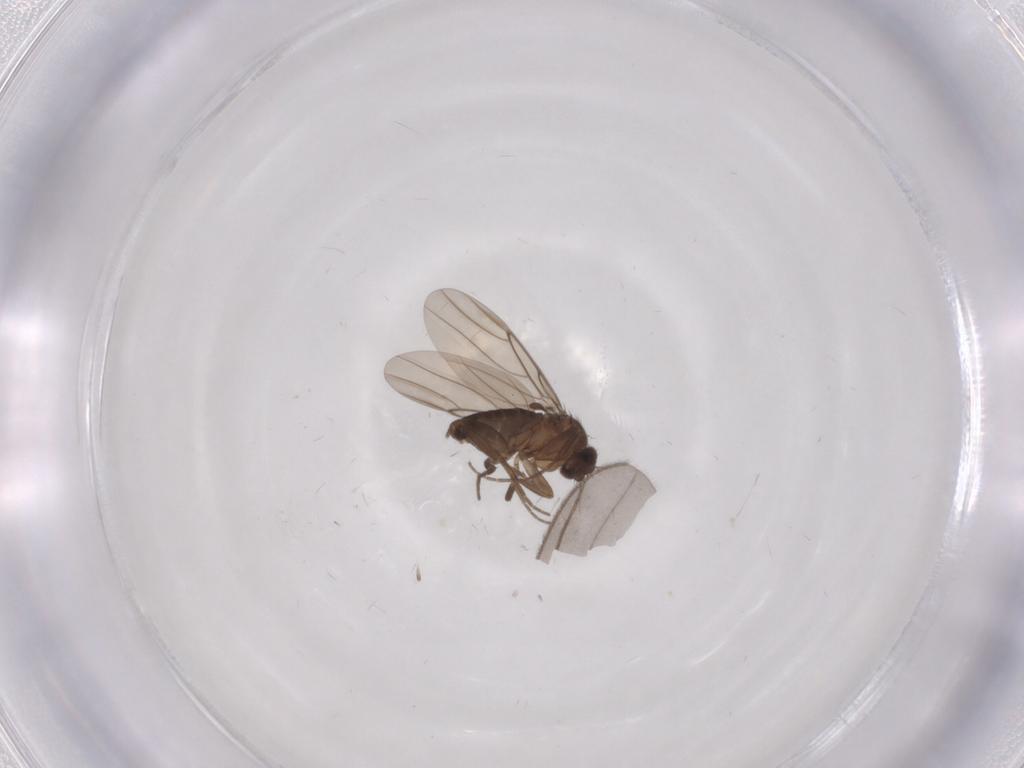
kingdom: Animalia
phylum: Arthropoda
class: Insecta
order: Diptera
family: Phoridae
